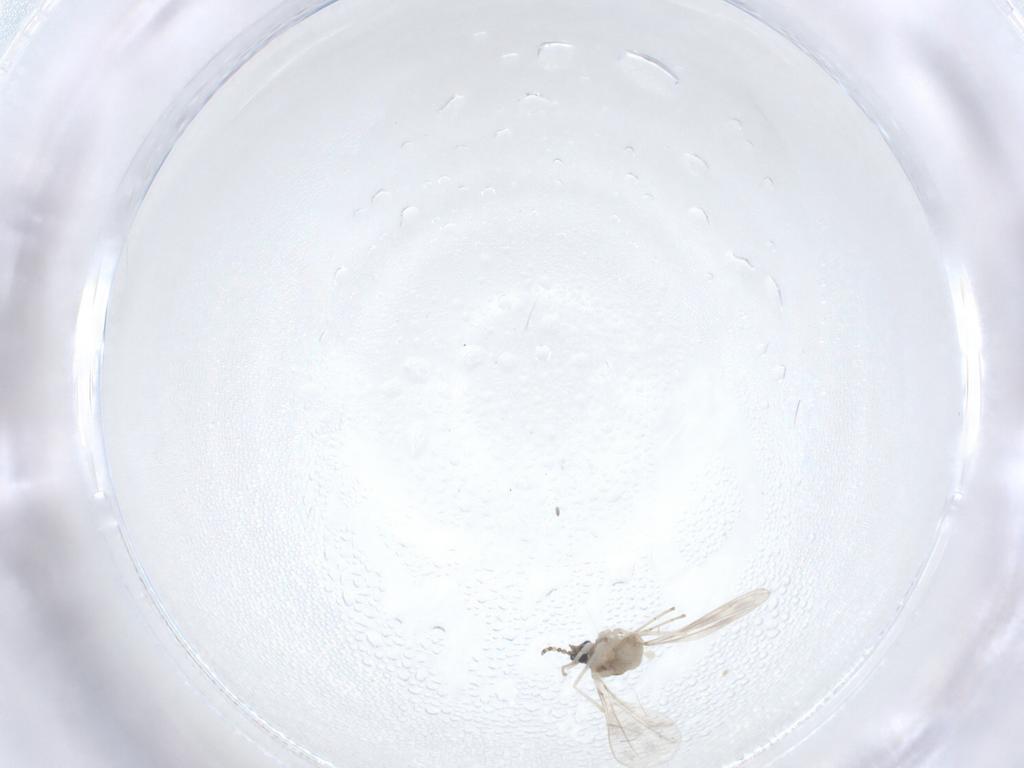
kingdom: Animalia
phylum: Arthropoda
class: Insecta
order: Diptera
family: Cecidomyiidae
